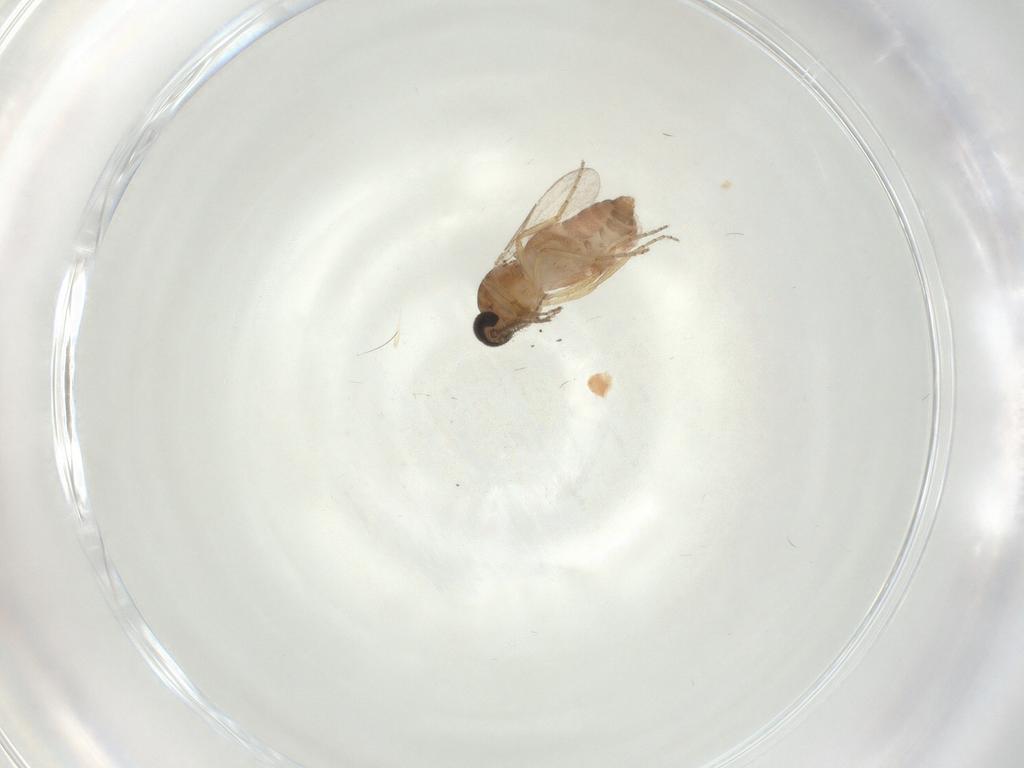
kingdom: Animalia
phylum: Arthropoda
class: Insecta
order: Diptera
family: Ceratopogonidae
